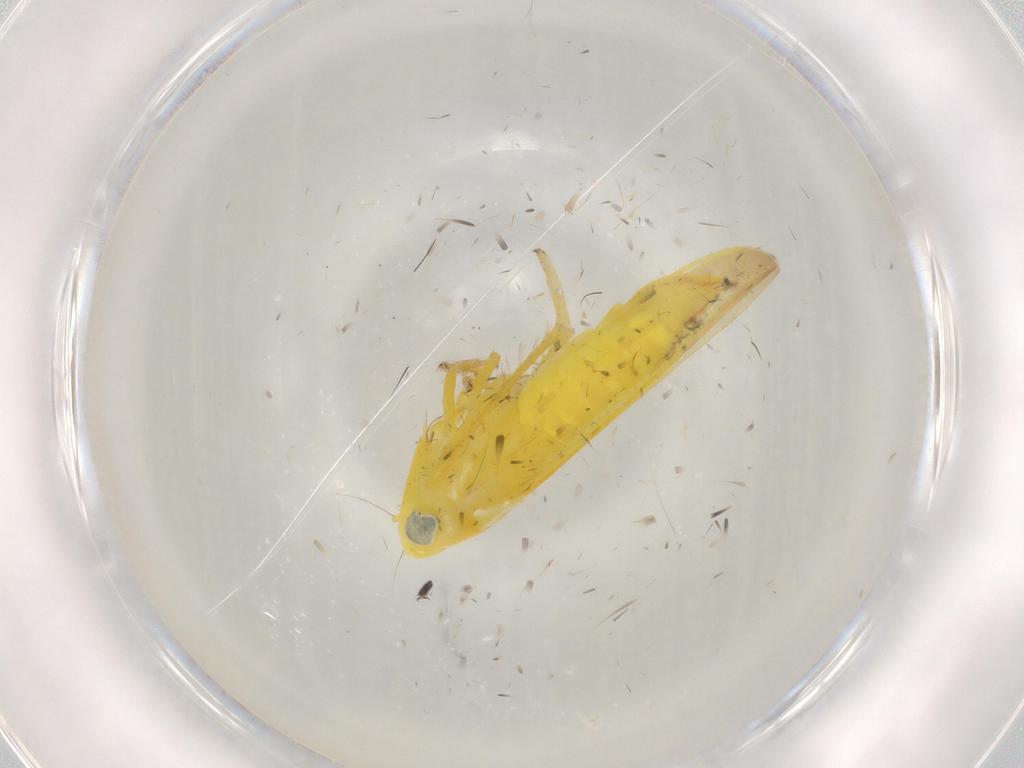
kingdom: Animalia
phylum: Arthropoda
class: Insecta
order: Hemiptera
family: Cicadellidae
